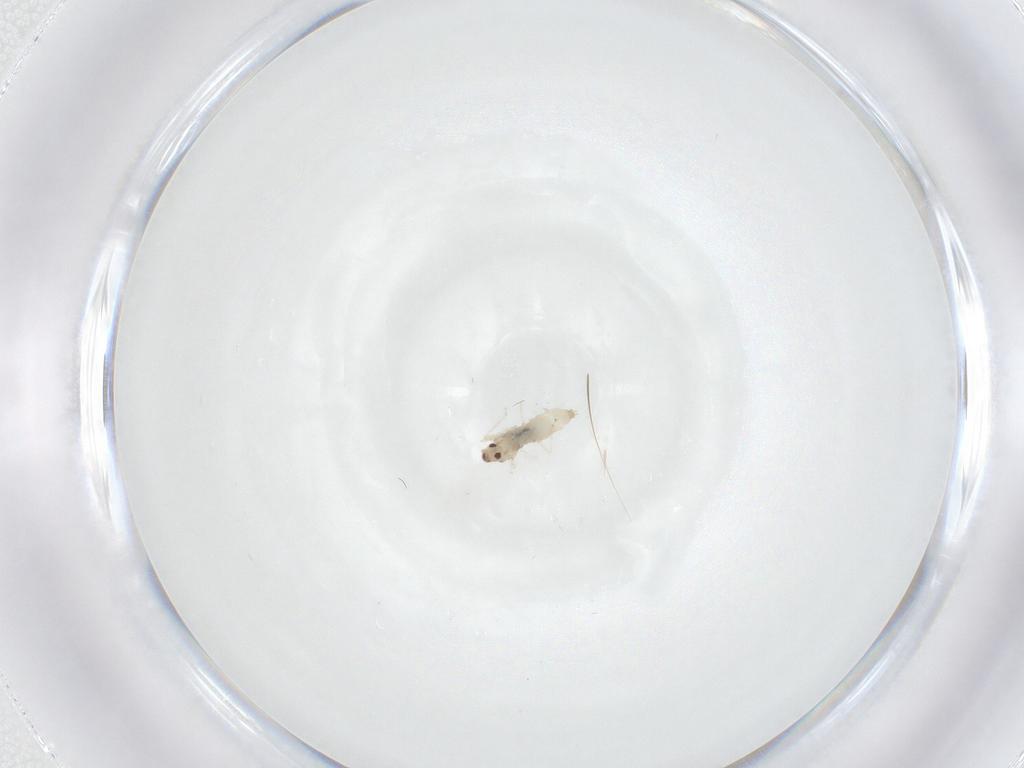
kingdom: Animalia
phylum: Arthropoda
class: Insecta
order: Diptera
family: Cecidomyiidae
